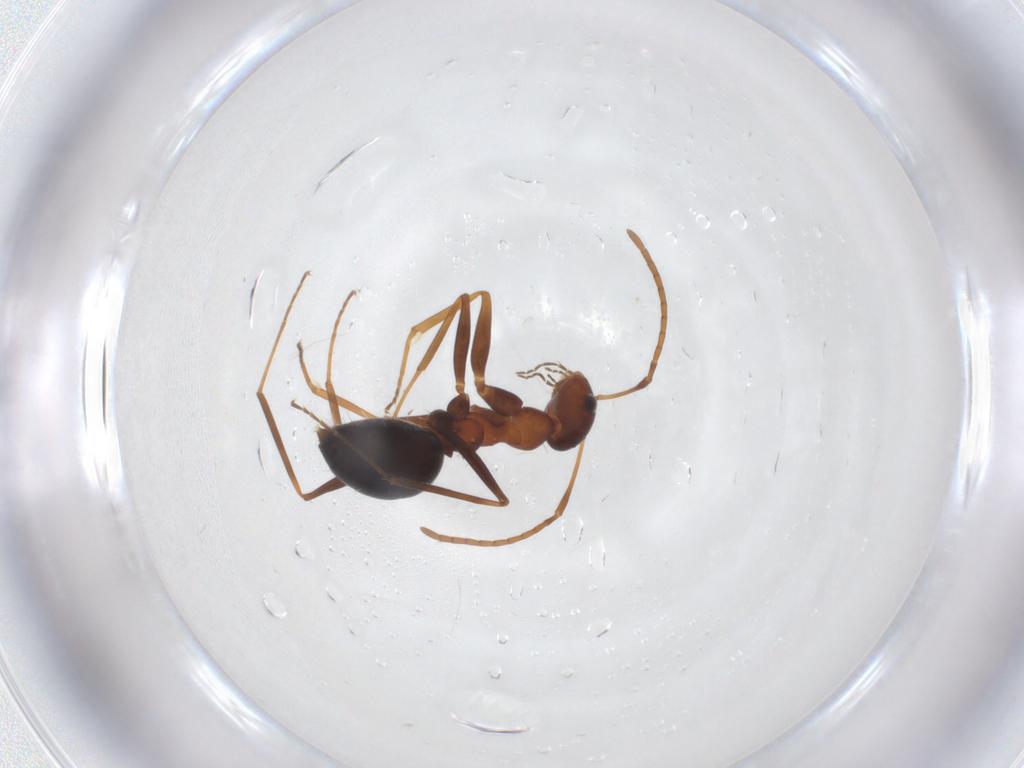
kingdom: Animalia
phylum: Arthropoda
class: Insecta
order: Hymenoptera
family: Formicidae
